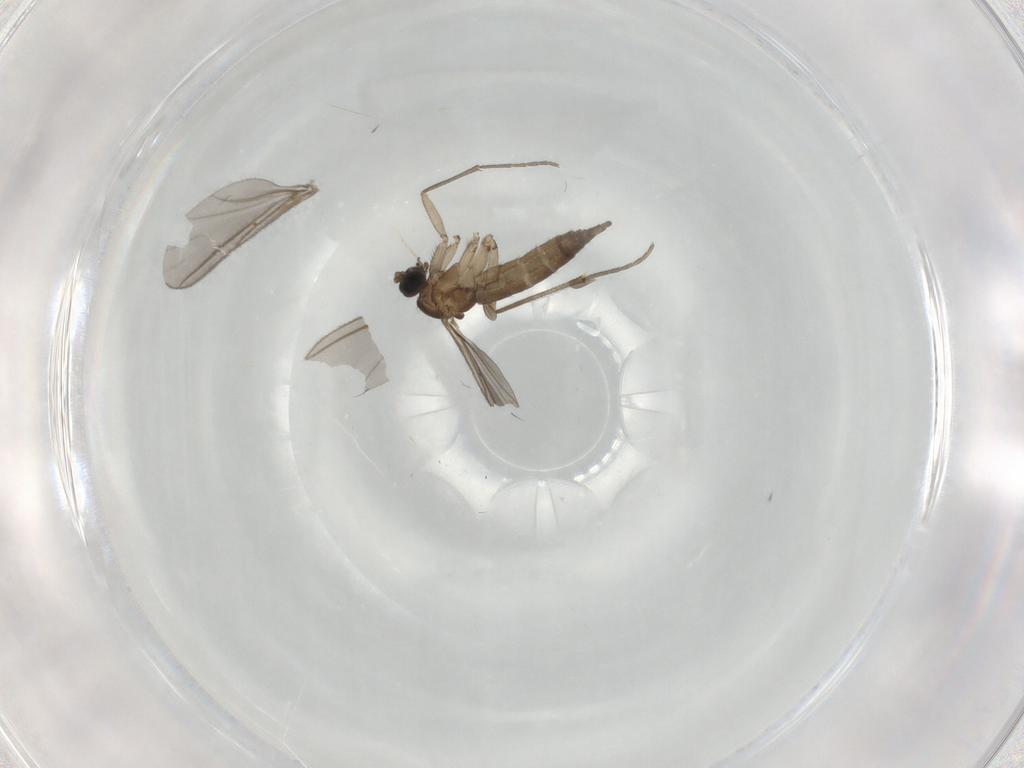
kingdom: Animalia
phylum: Arthropoda
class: Insecta
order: Diptera
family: Sciaridae
